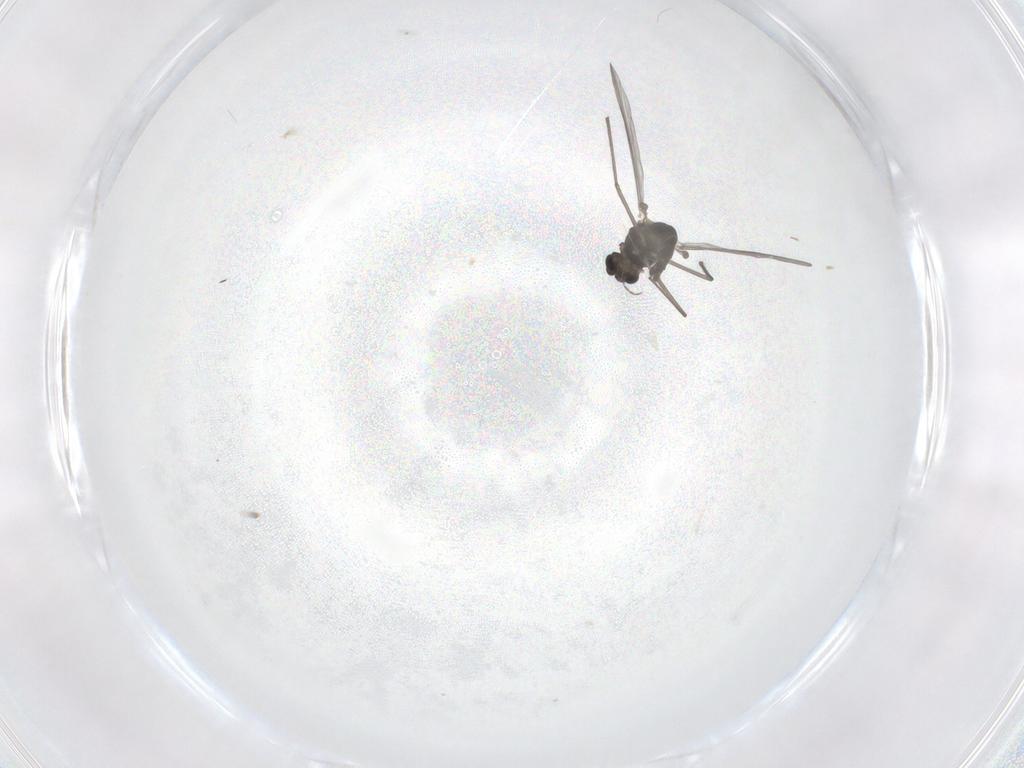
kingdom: Animalia
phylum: Arthropoda
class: Insecta
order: Diptera
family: Chironomidae
